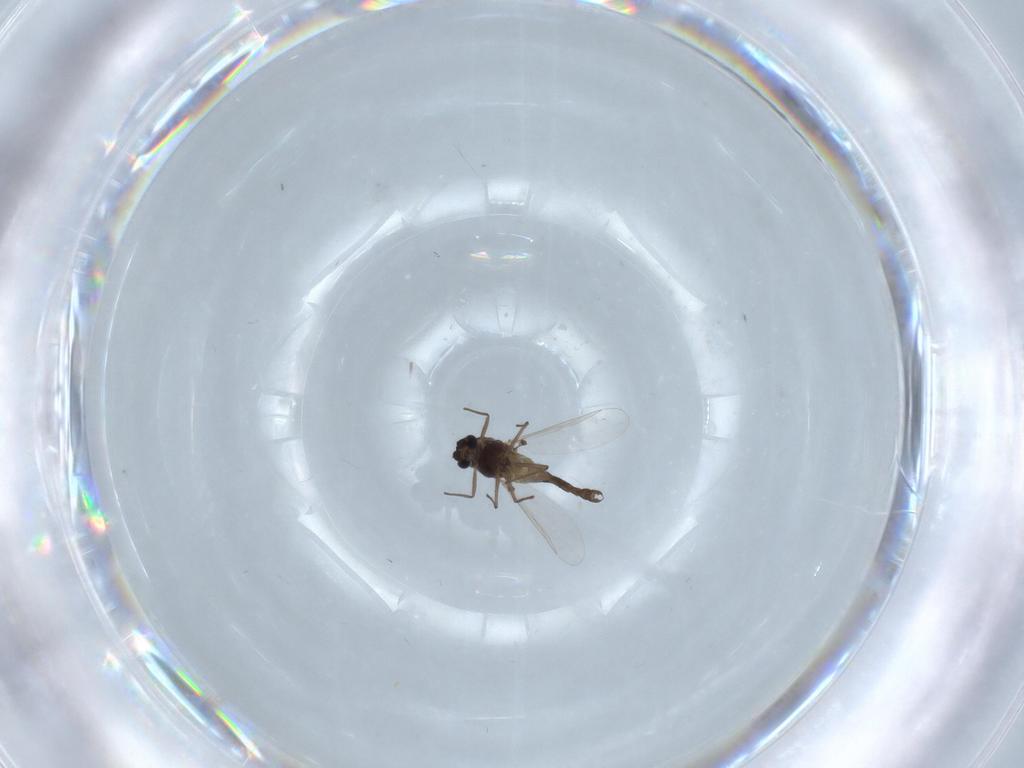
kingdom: Animalia
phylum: Arthropoda
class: Insecta
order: Diptera
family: Chironomidae
